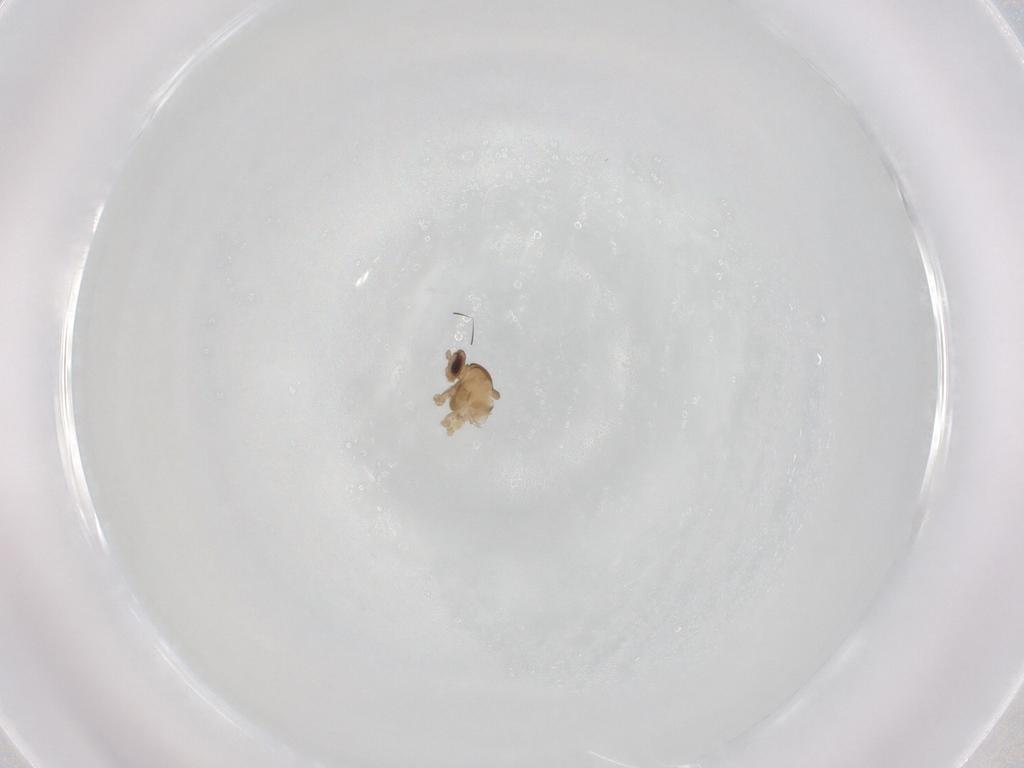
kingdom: Animalia
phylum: Arthropoda
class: Insecta
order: Diptera
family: Cecidomyiidae
